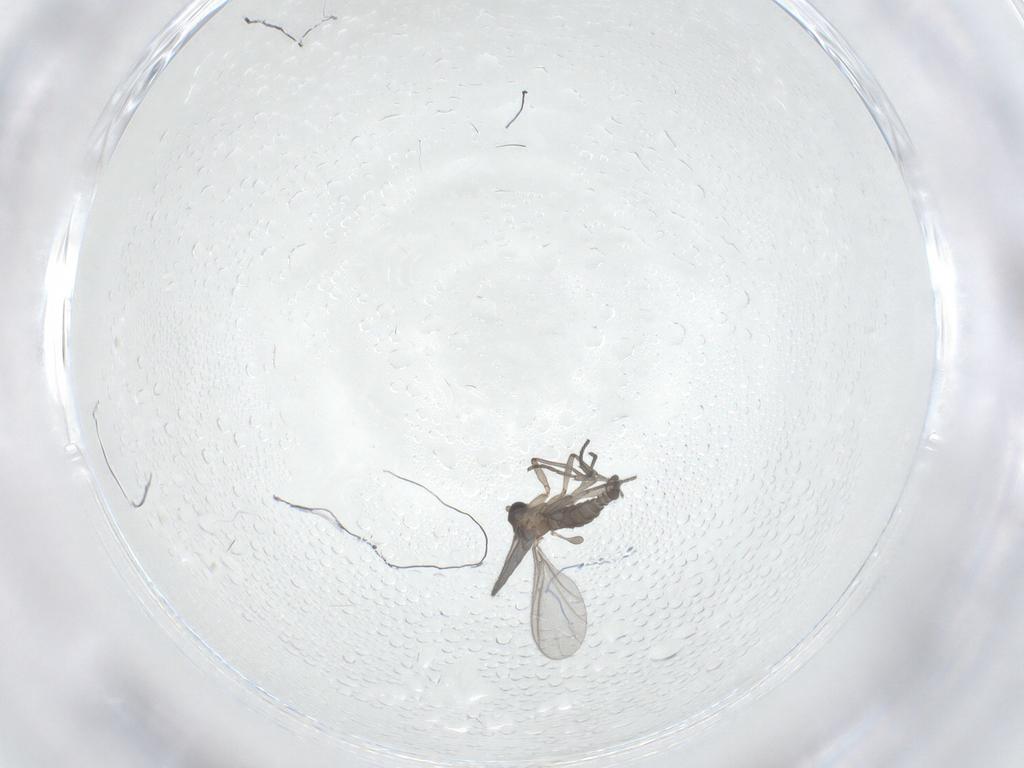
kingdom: Animalia
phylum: Arthropoda
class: Insecta
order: Diptera
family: Sciaridae
